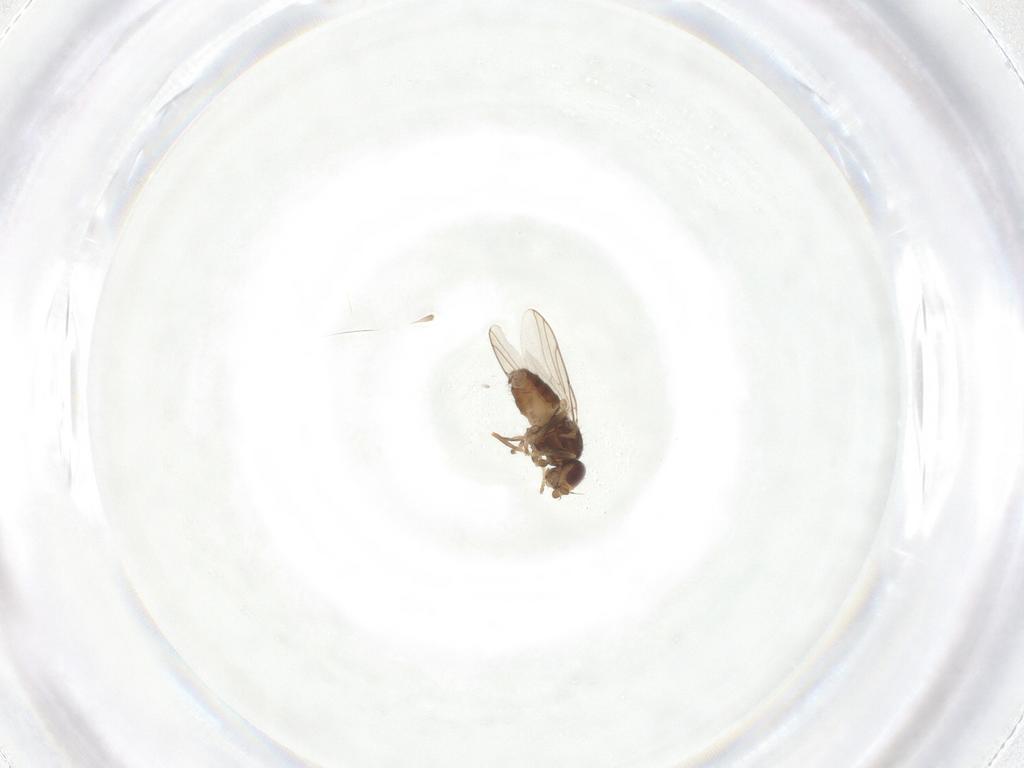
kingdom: Animalia
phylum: Arthropoda
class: Insecta
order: Diptera
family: Chloropidae
